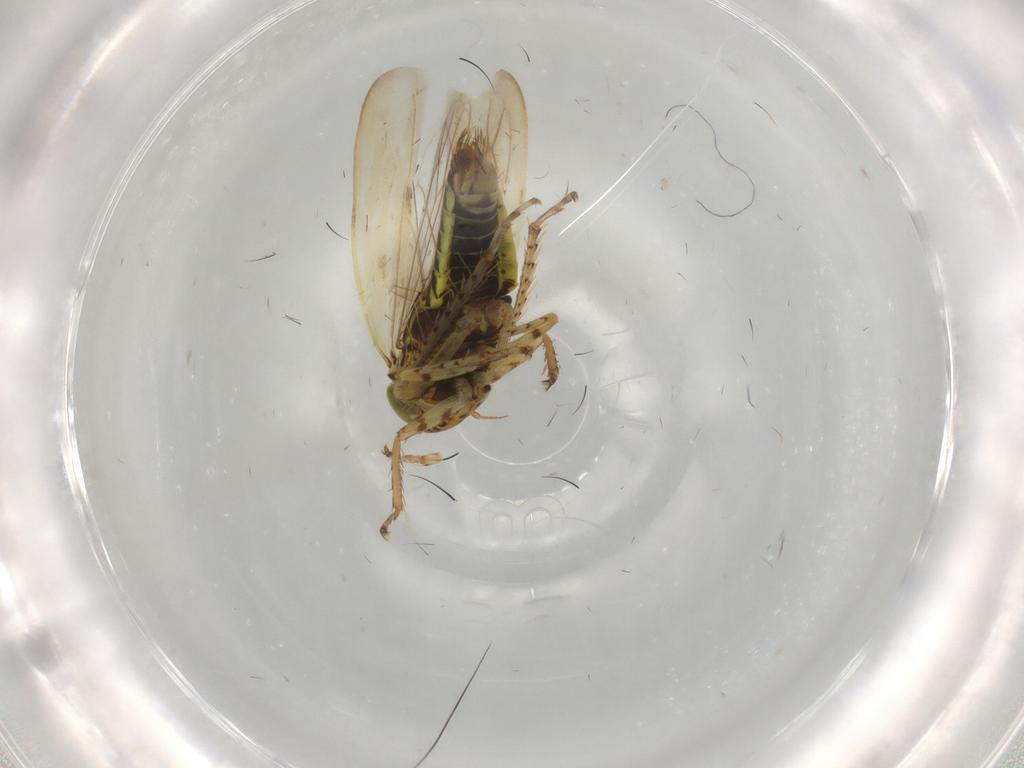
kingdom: Animalia
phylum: Arthropoda
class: Insecta
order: Hemiptera
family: Cicadellidae
